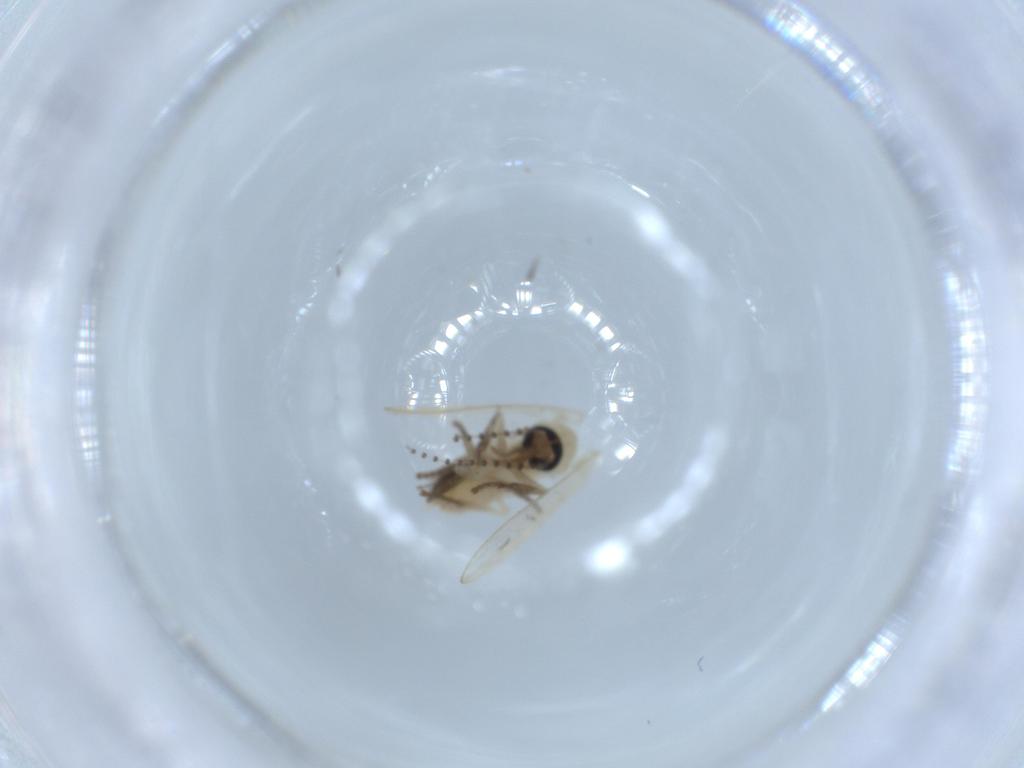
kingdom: Animalia
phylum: Arthropoda
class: Insecta
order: Diptera
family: Psychodidae
